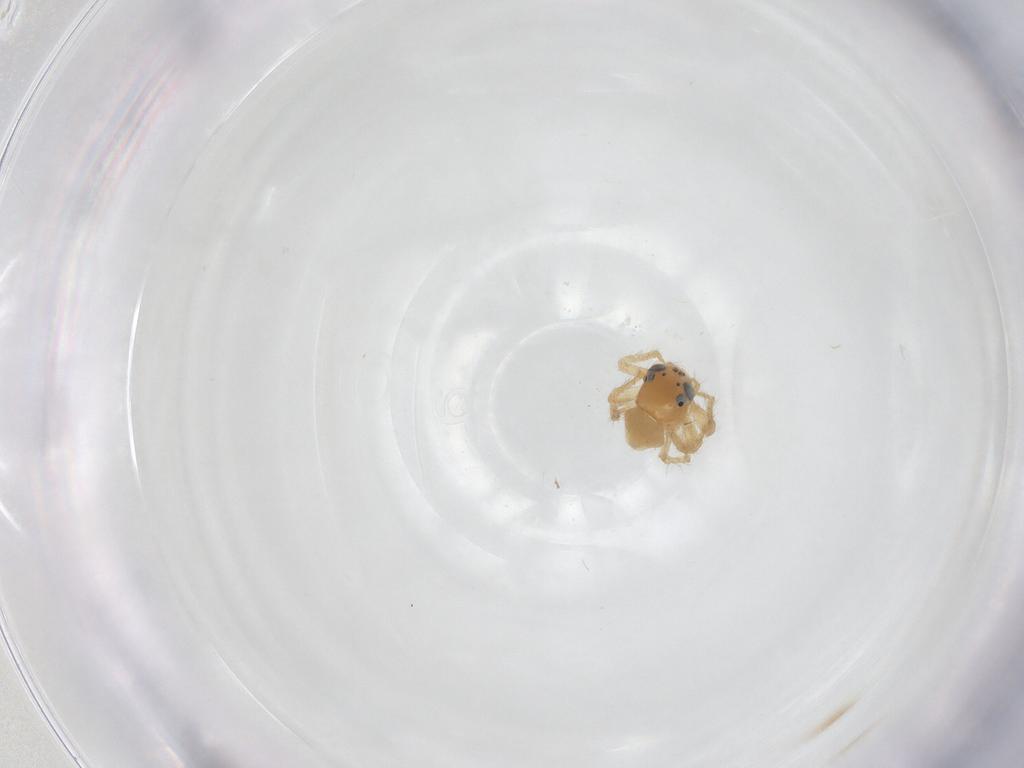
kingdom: Animalia
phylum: Arthropoda
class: Arachnida
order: Araneae
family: Thomisidae
